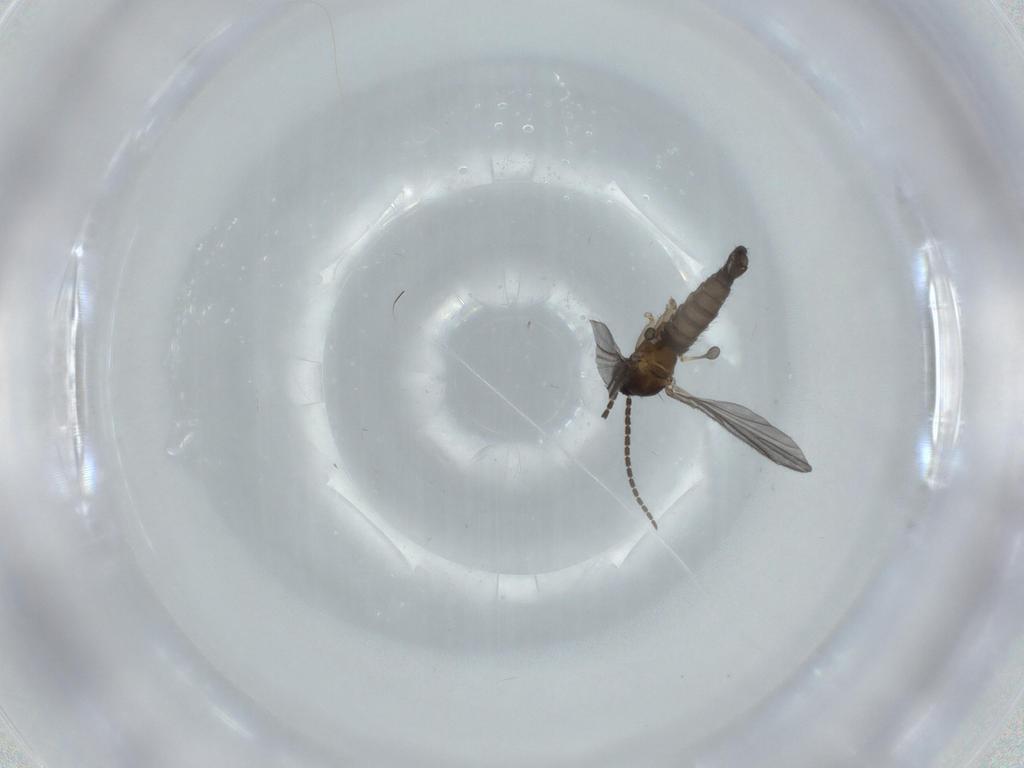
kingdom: Animalia
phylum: Arthropoda
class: Insecta
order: Diptera
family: Sciaridae
